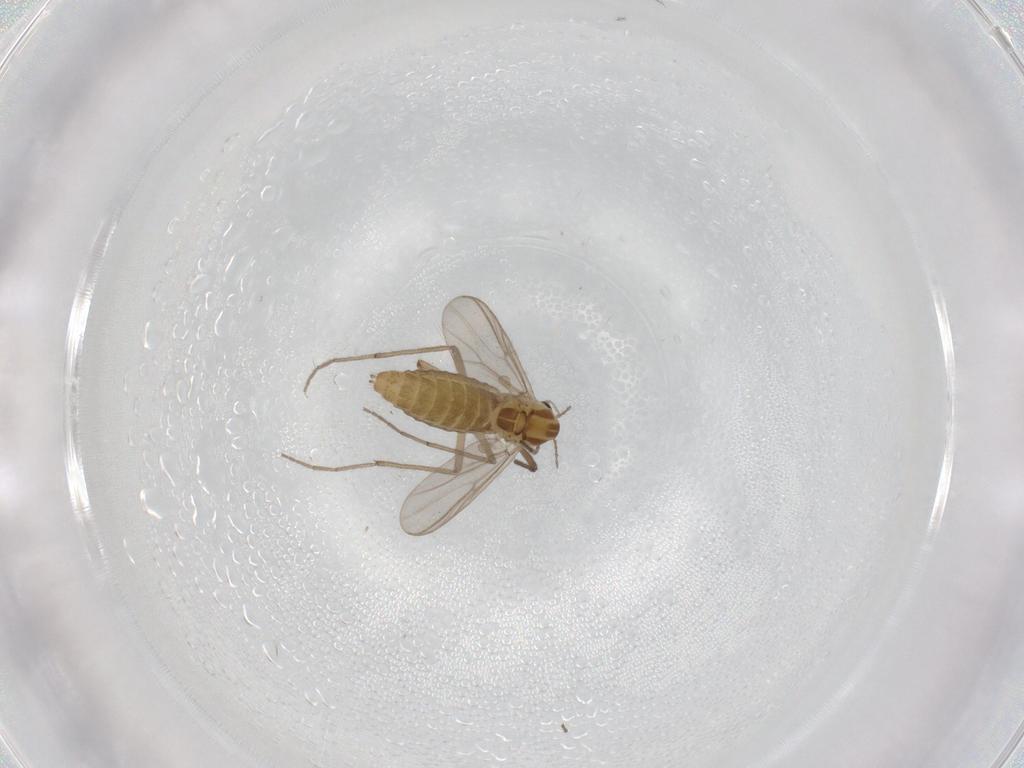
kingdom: Animalia
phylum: Arthropoda
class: Insecta
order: Diptera
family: Chironomidae
